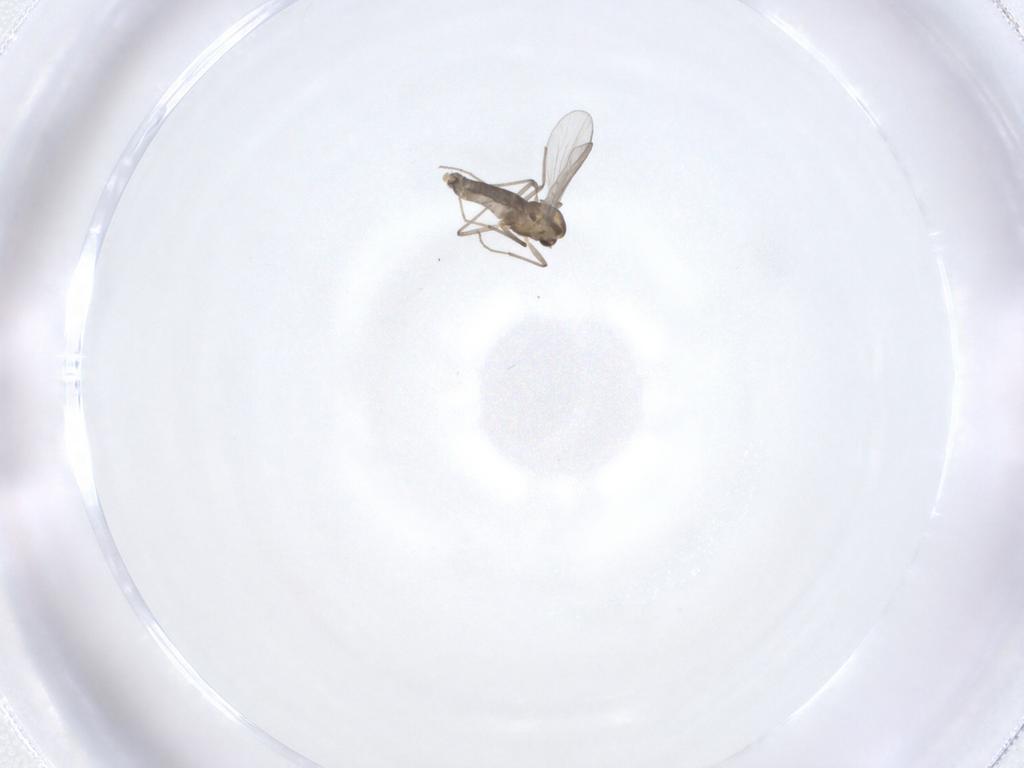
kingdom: Animalia
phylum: Arthropoda
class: Insecta
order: Diptera
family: Chironomidae
